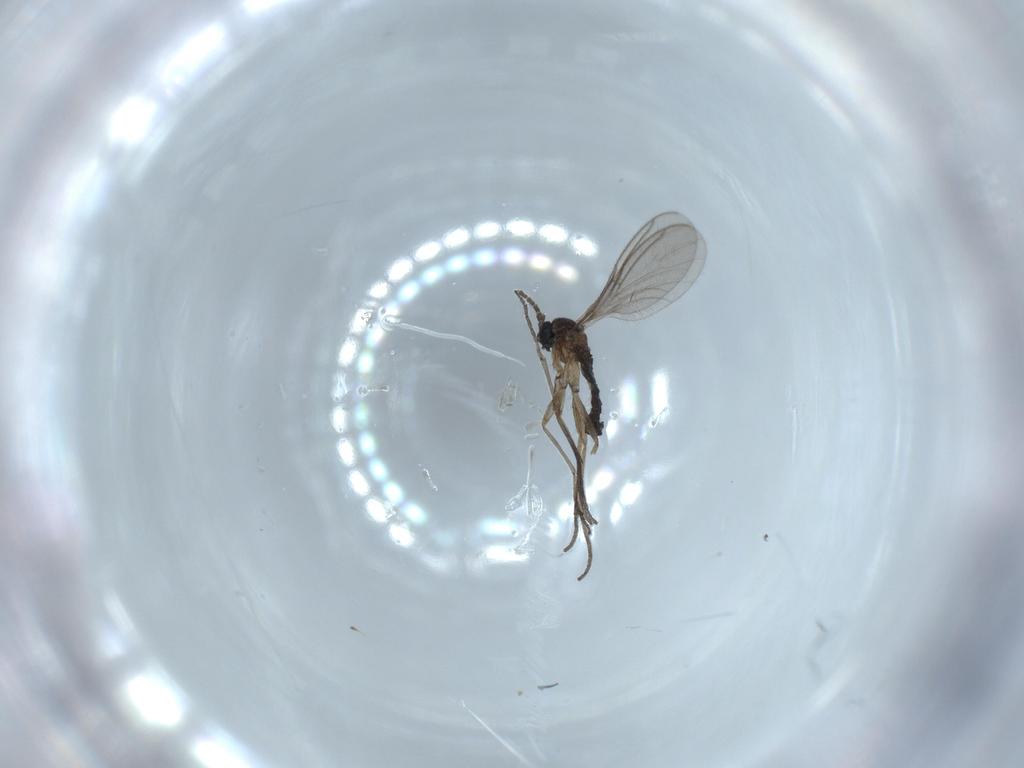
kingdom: Animalia
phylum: Arthropoda
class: Insecta
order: Diptera
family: Sciaridae
